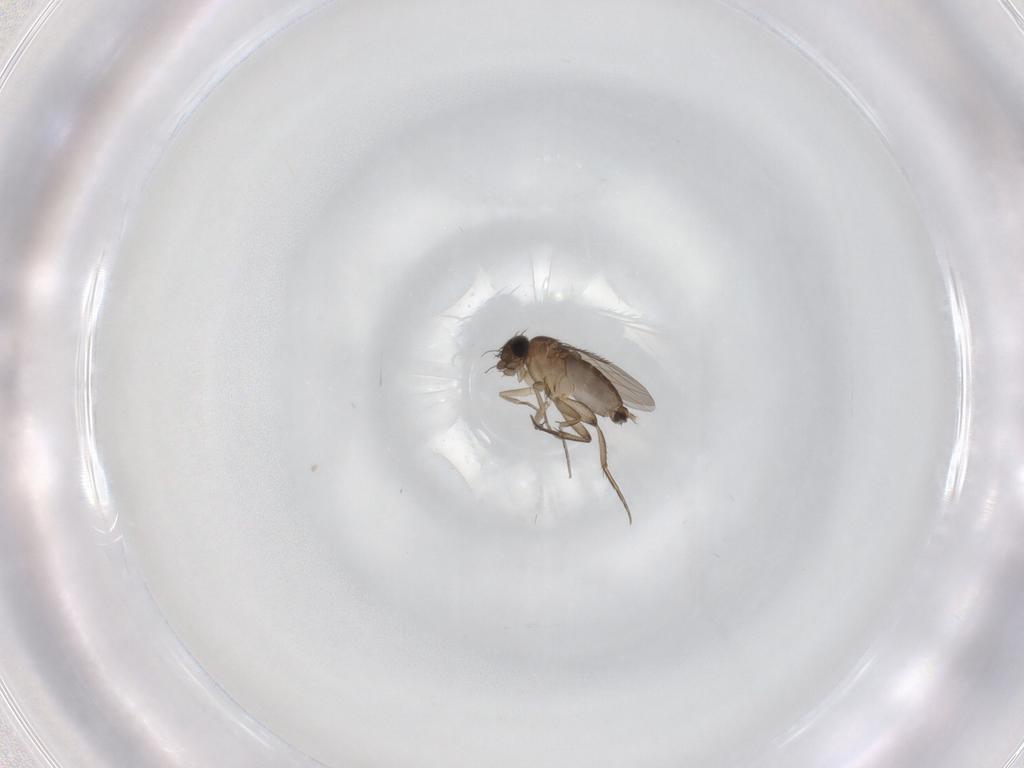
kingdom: Animalia
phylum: Arthropoda
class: Insecta
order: Diptera
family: Phoridae
